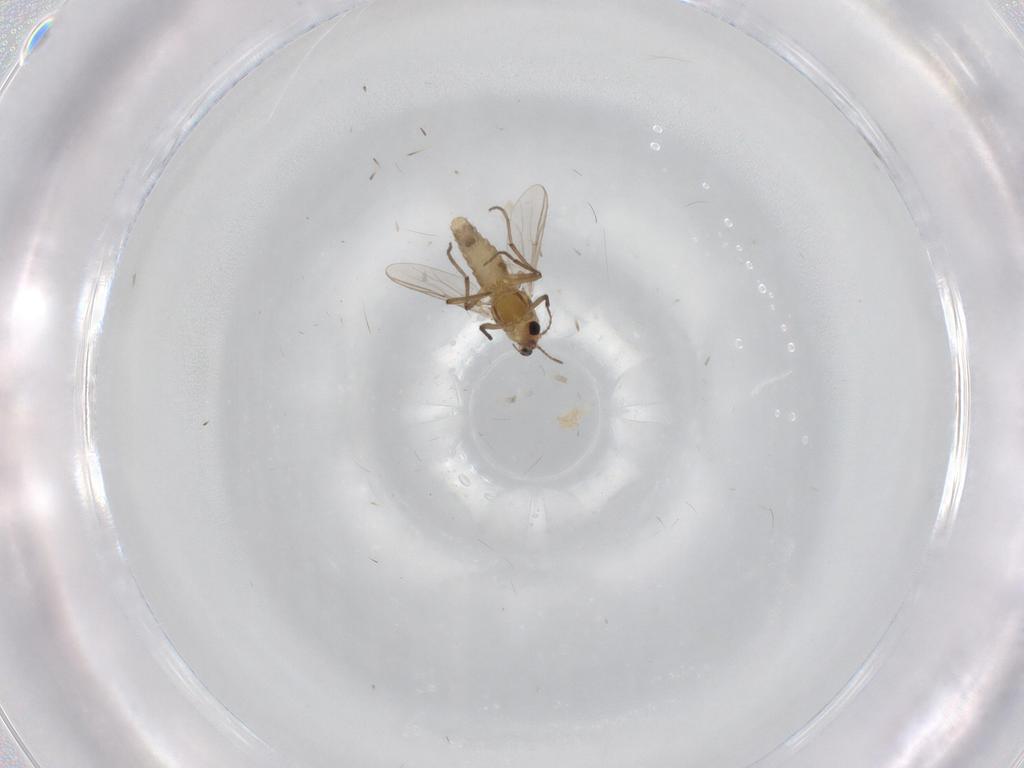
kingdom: Animalia
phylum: Arthropoda
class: Insecta
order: Diptera
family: Chironomidae
